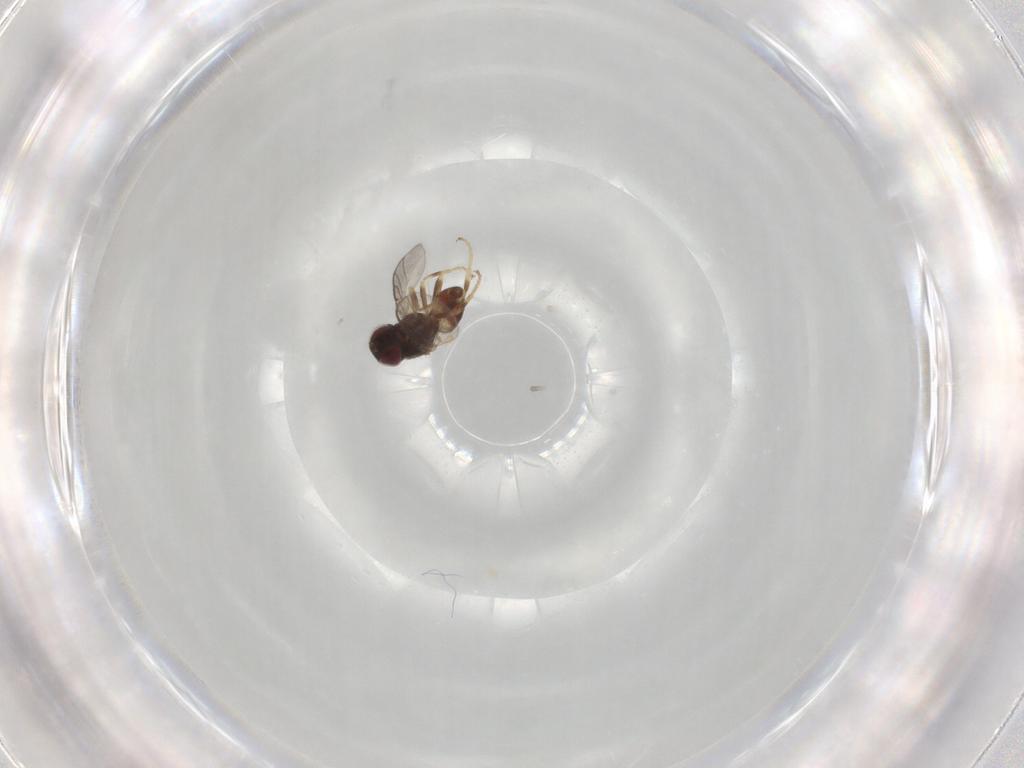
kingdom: Animalia
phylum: Arthropoda
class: Insecta
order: Diptera
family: Chloropidae
